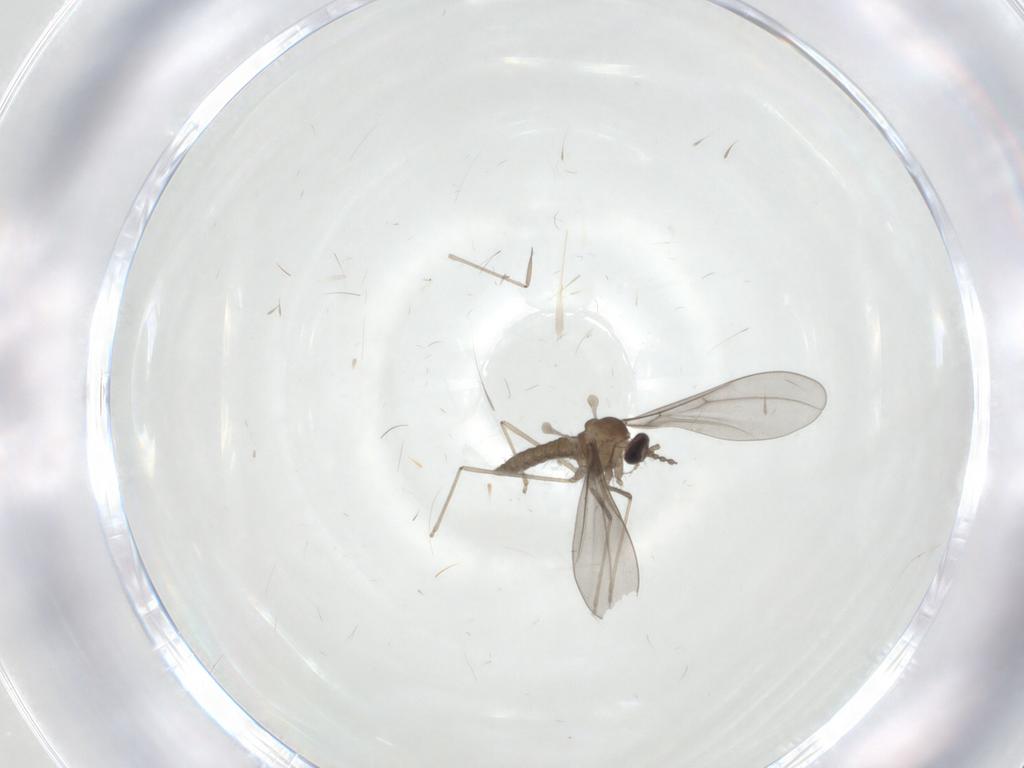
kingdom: Animalia
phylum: Arthropoda
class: Insecta
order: Diptera
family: Cecidomyiidae
